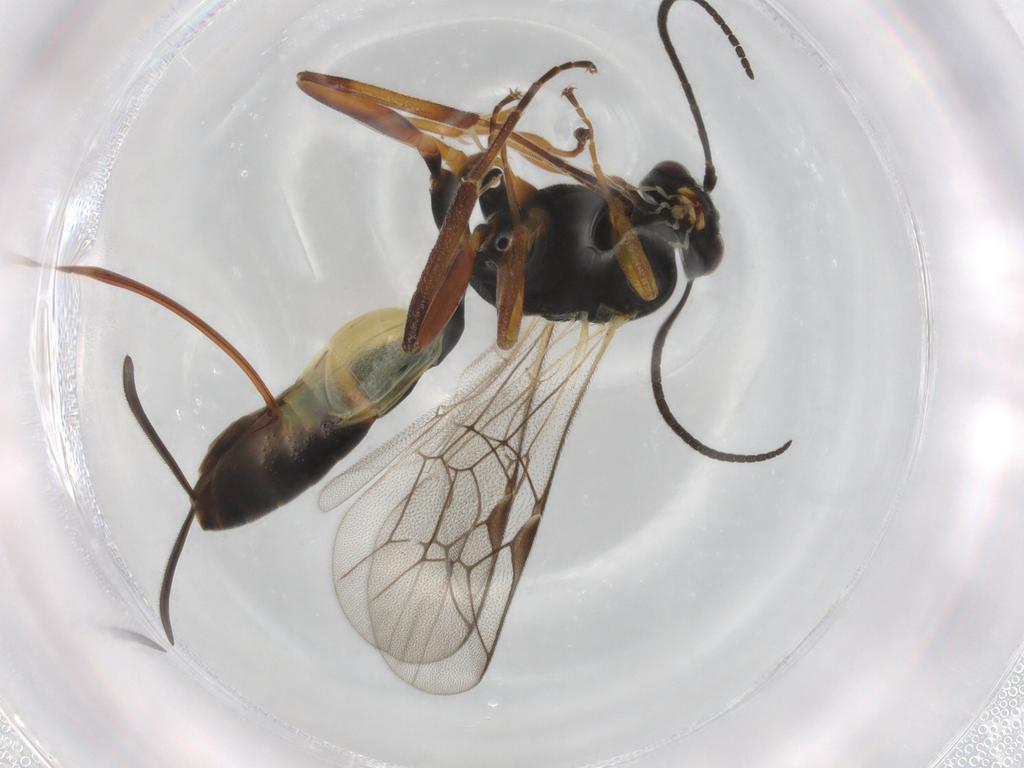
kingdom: Animalia
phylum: Arthropoda
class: Insecta
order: Hymenoptera
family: Ichneumonidae
